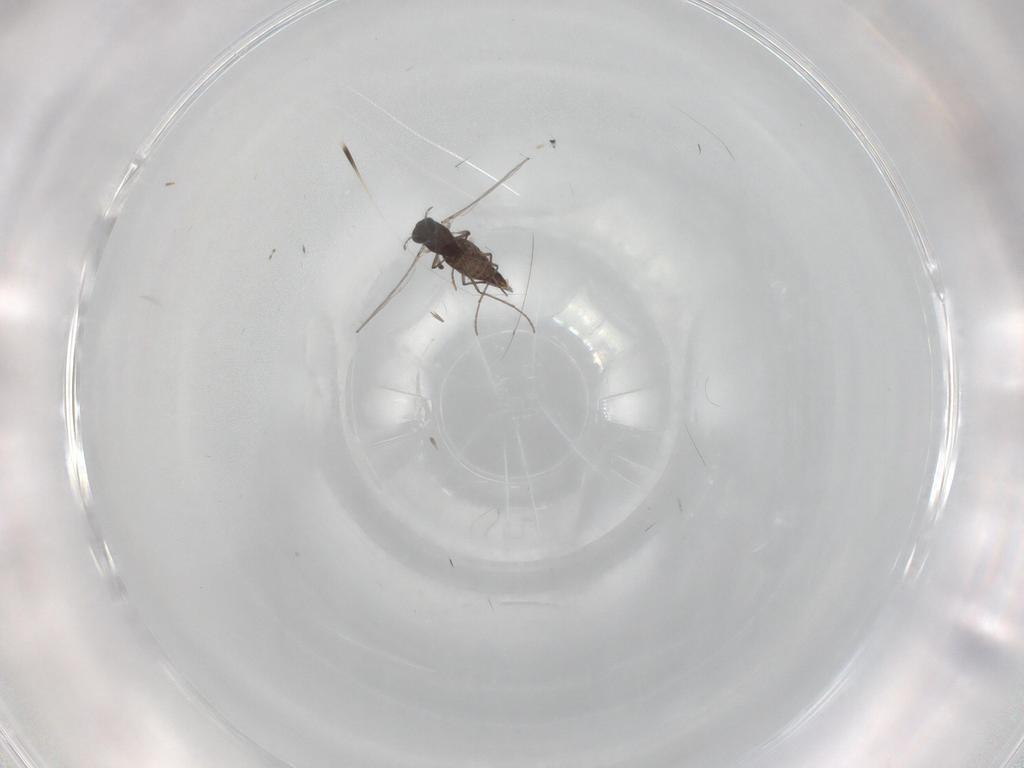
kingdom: Animalia
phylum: Arthropoda
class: Insecta
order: Diptera
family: Chironomidae
